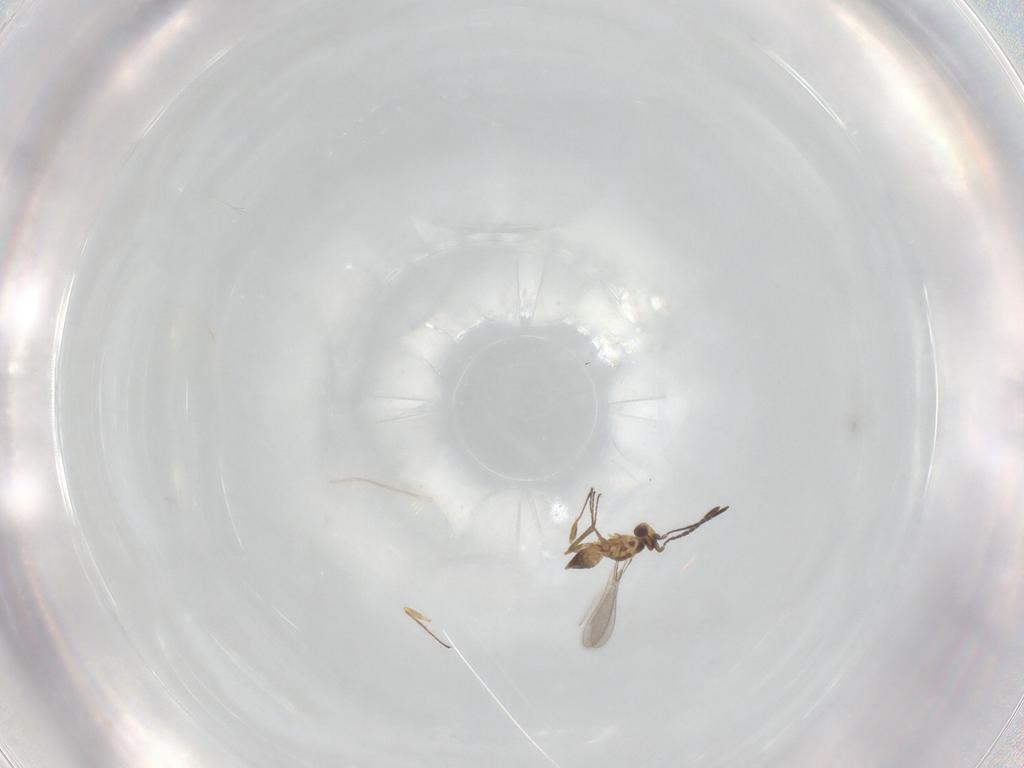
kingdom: Animalia
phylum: Arthropoda
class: Insecta
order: Hymenoptera
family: Mymaridae
